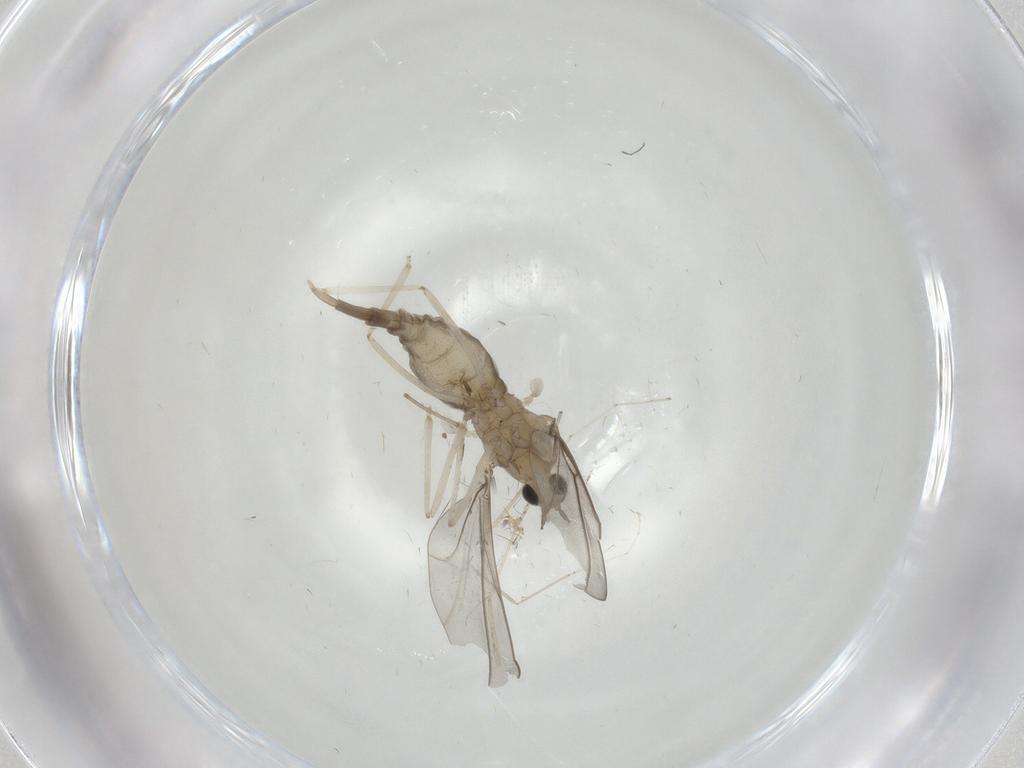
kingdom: Animalia
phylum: Arthropoda
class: Insecta
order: Diptera
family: Cecidomyiidae
